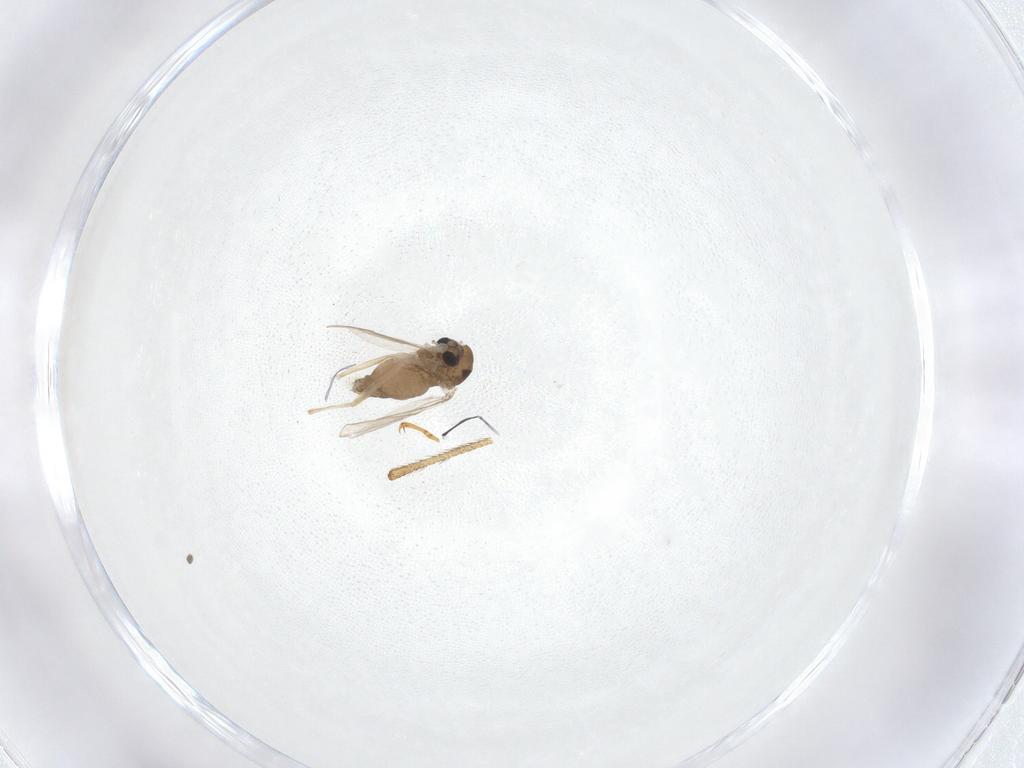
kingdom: Animalia
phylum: Arthropoda
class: Insecta
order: Diptera
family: Chironomidae
